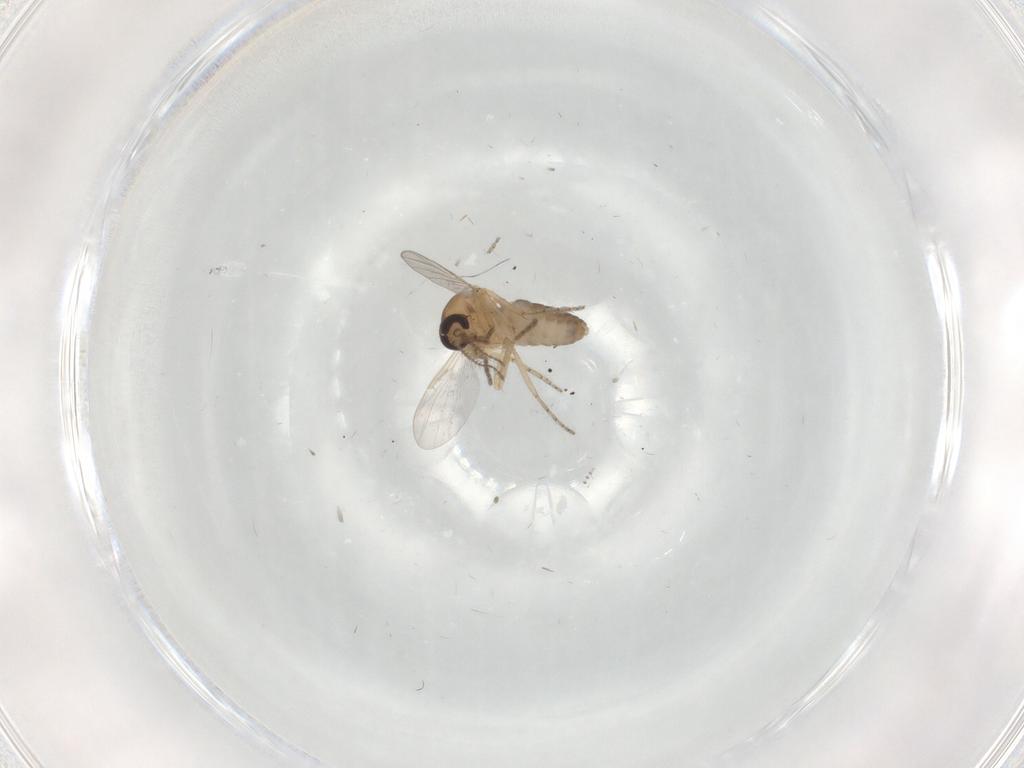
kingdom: Animalia
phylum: Arthropoda
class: Insecta
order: Diptera
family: Ceratopogonidae
